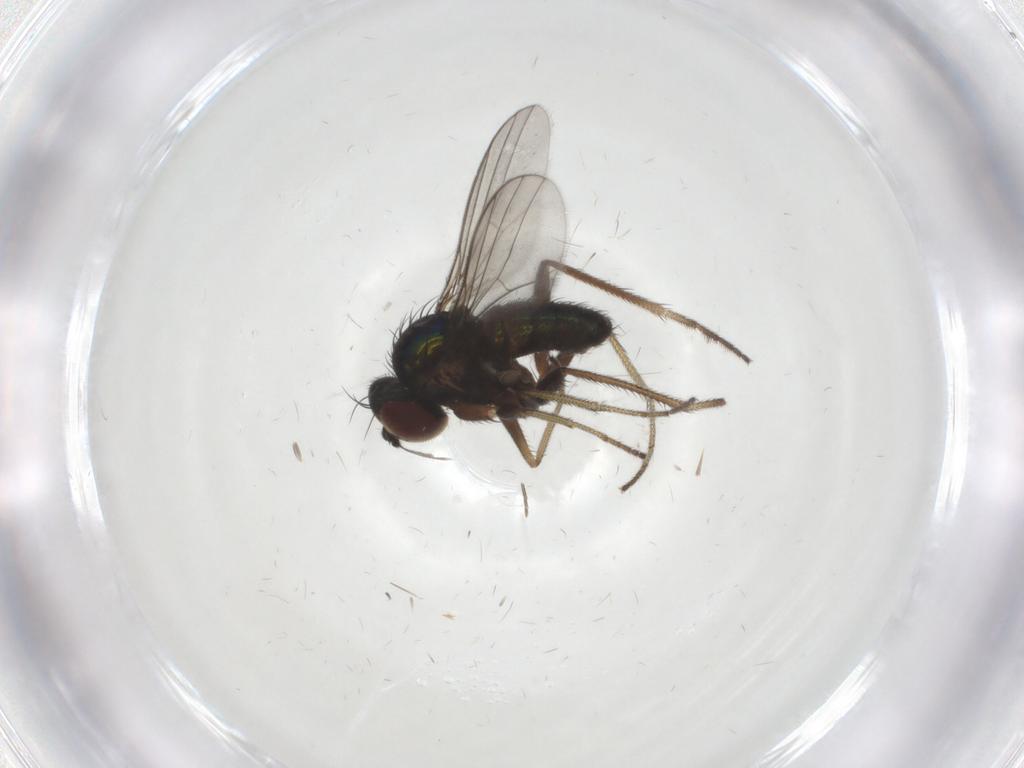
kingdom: Animalia
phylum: Arthropoda
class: Insecta
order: Diptera
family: Dolichopodidae
